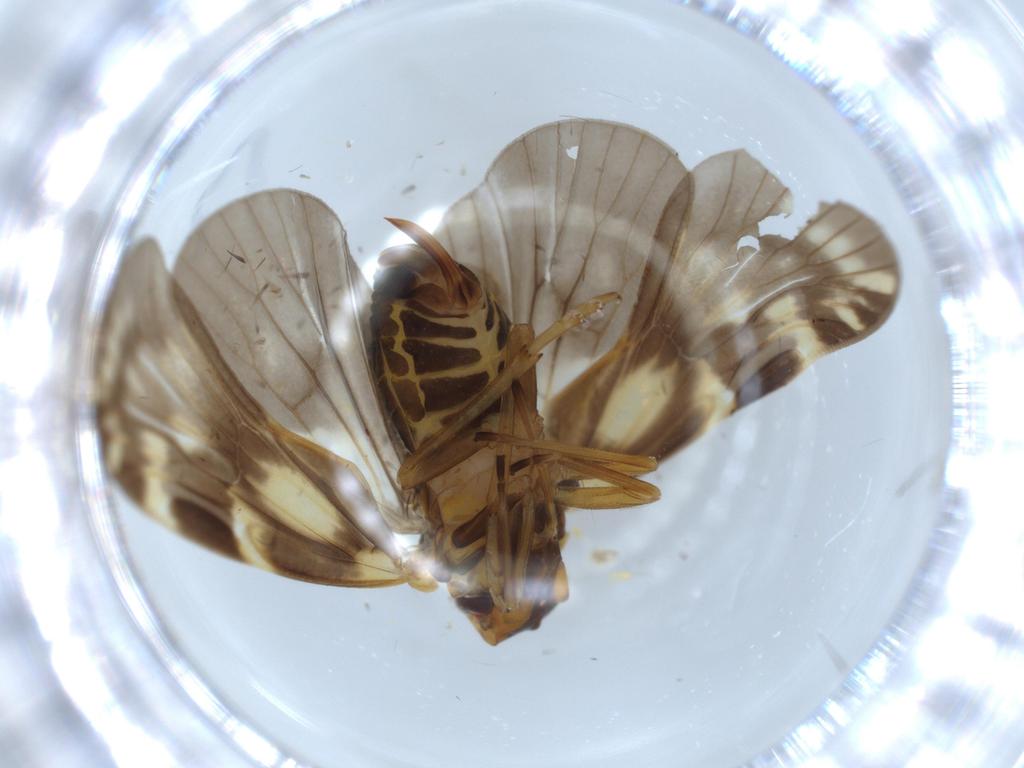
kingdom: Animalia
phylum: Arthropoda
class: Insecta
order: Hemiptera
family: Cixiidae
